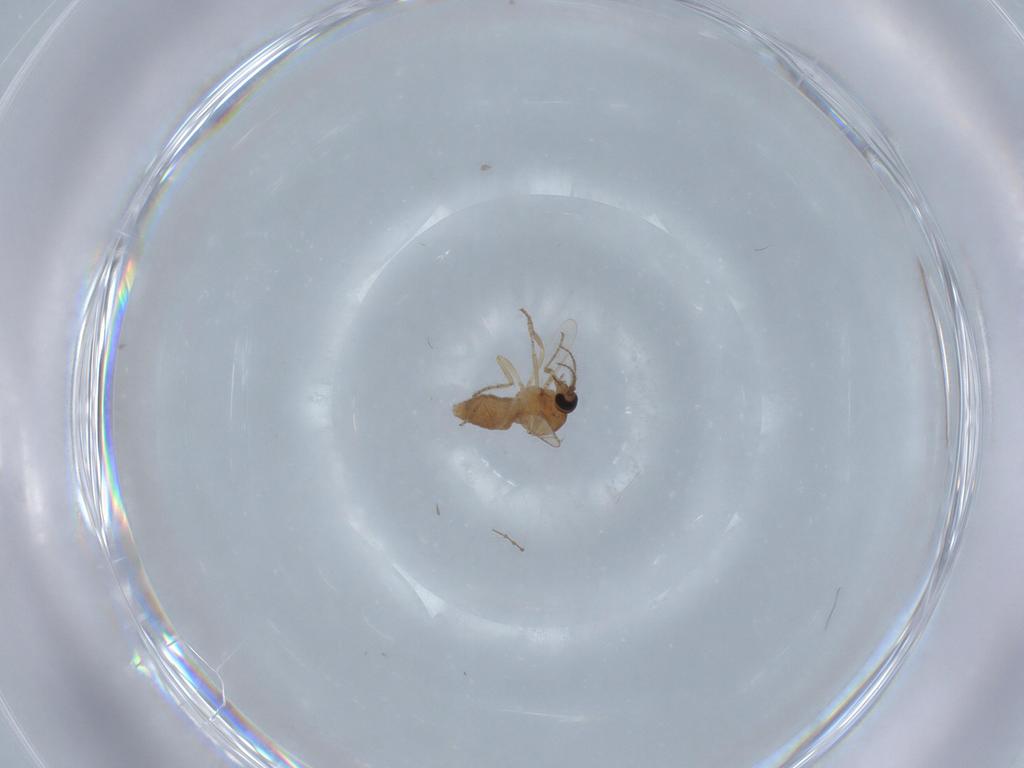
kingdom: Animalia
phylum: Arthropoda
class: Insecta
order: Diptera
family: Ceratopogonidae
